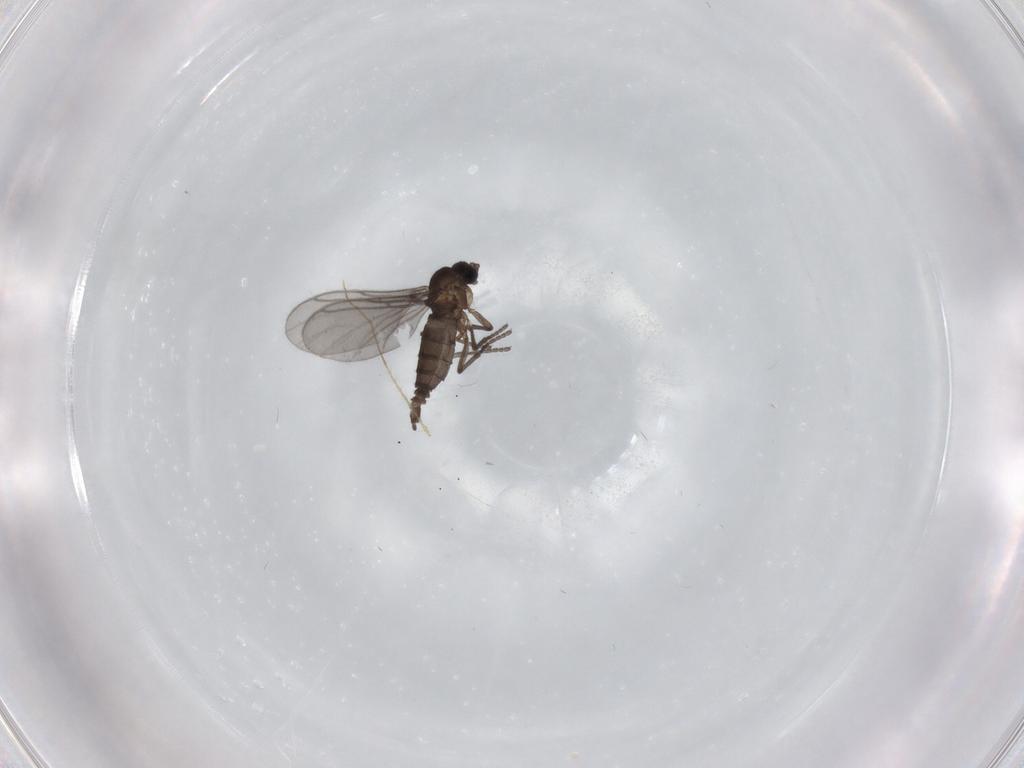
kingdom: Animalia
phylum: Arthropoda
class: Insecta
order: Diptera
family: Sciaridae
